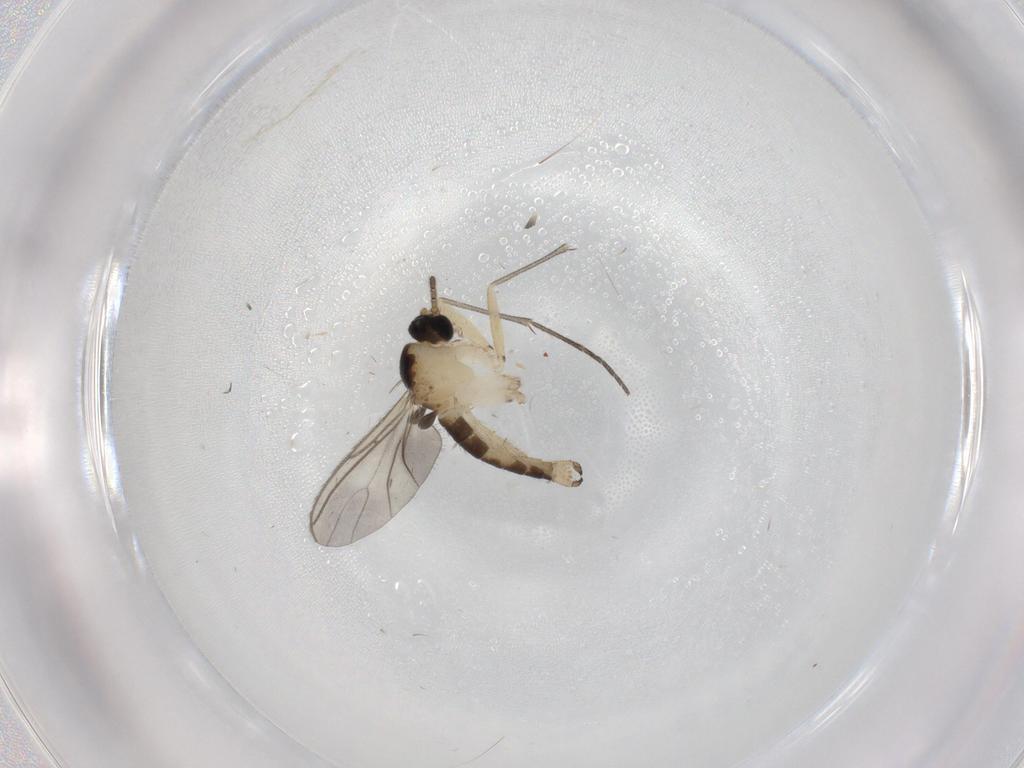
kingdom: Animalia
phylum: Arthropoda
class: Insecta
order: Diptera
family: Sciaridae
